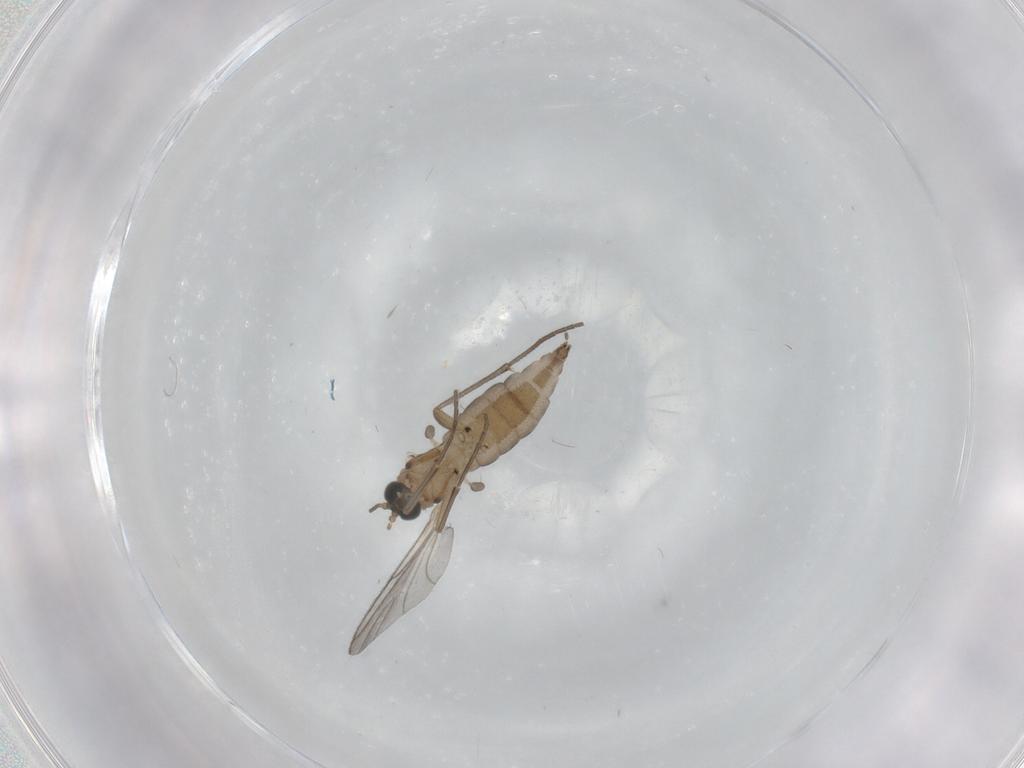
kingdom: Animalia
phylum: Arthropoda
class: Insecta
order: Diptera
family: Sciaridae
